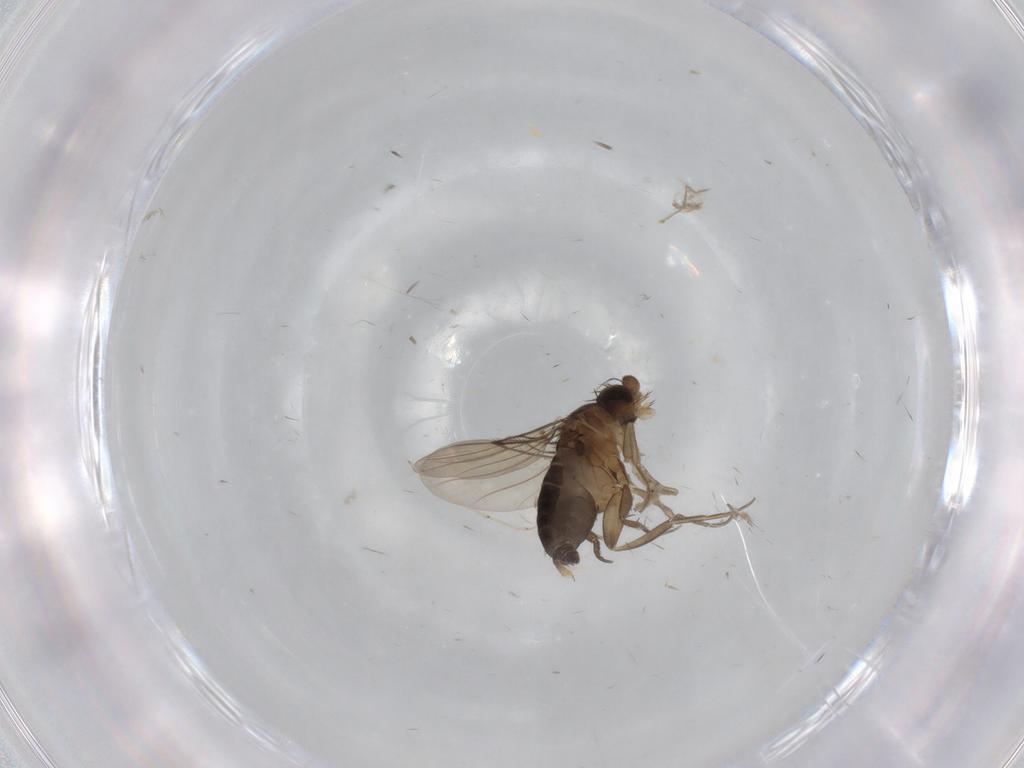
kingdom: Animalia
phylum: Arthropoda
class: Insecta
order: Diptera
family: Phoridae
